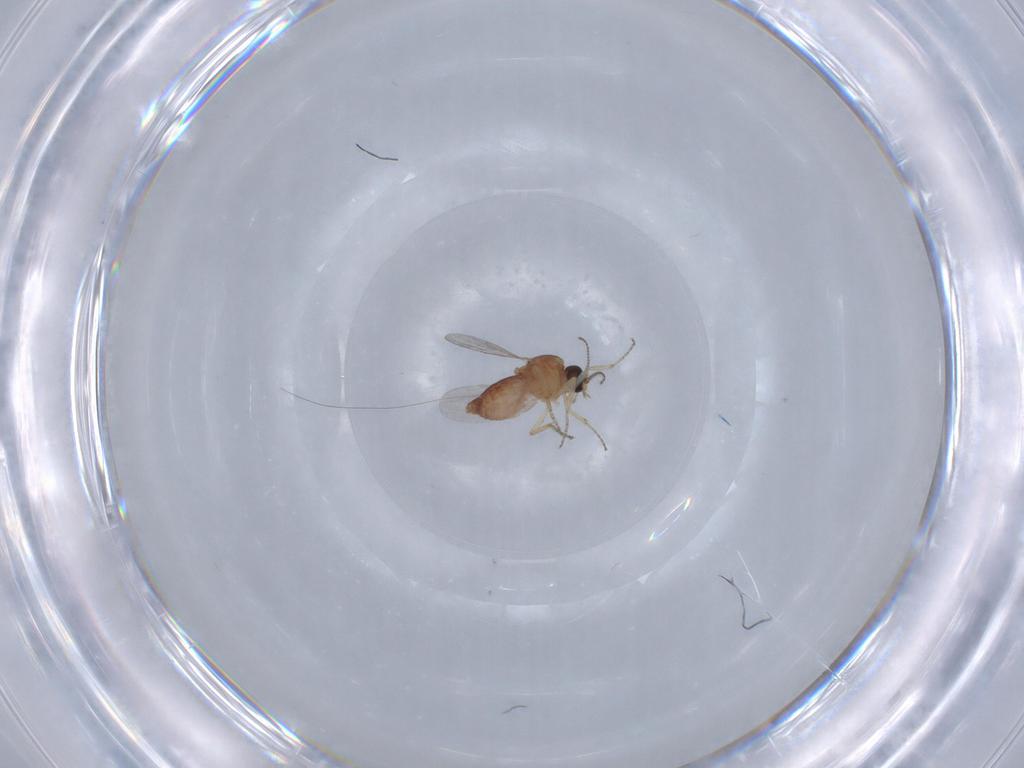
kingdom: Animalia
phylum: Arthropoda
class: Insecta
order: Diptera
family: Ceratopogonidae
